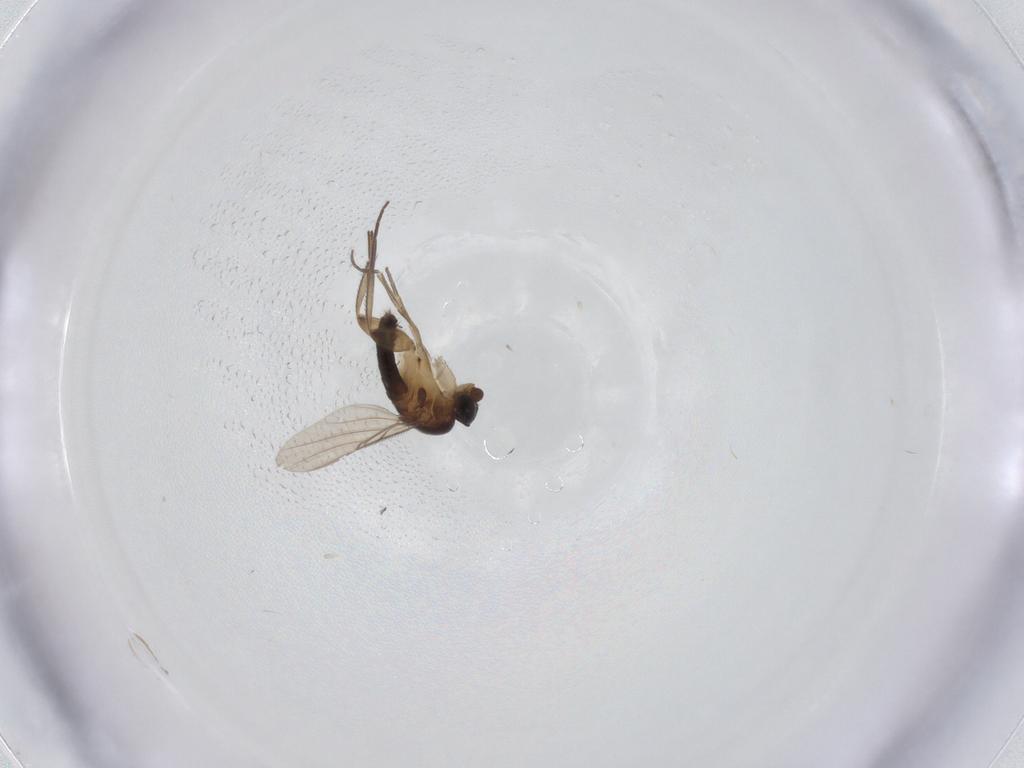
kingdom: Animalia
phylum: Arthropoda
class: Insecta
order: Diptera
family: Phoridae
